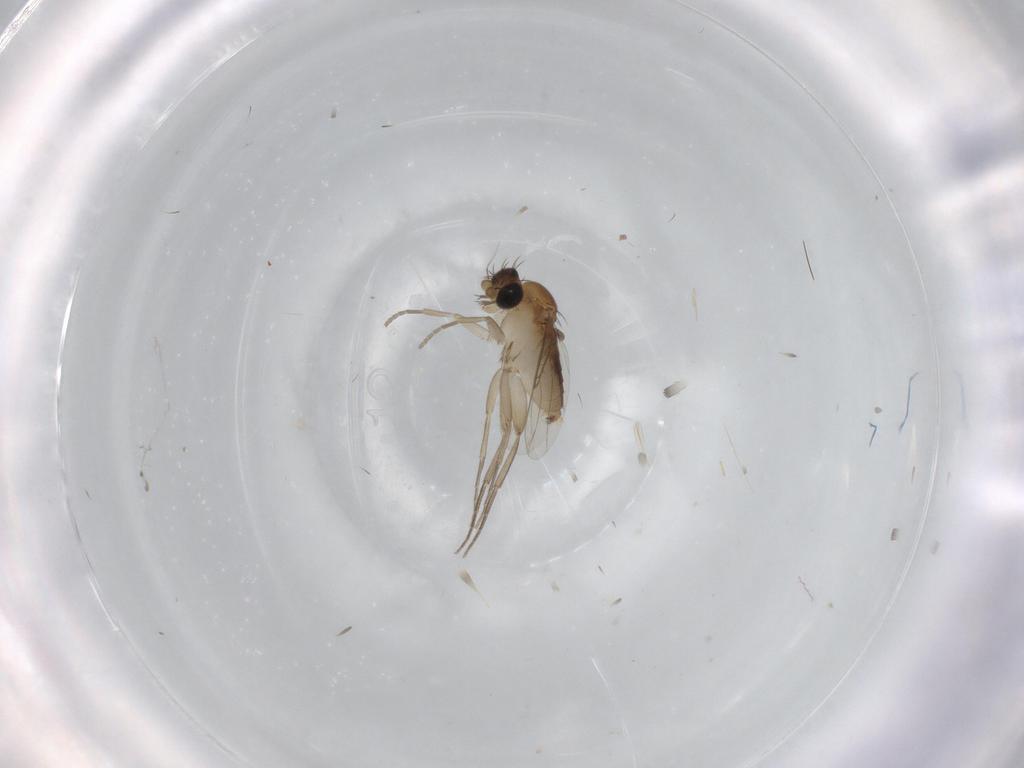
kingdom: Animalia
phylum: Arthropoda
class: Insecta
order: Diptera
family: Phoridae
